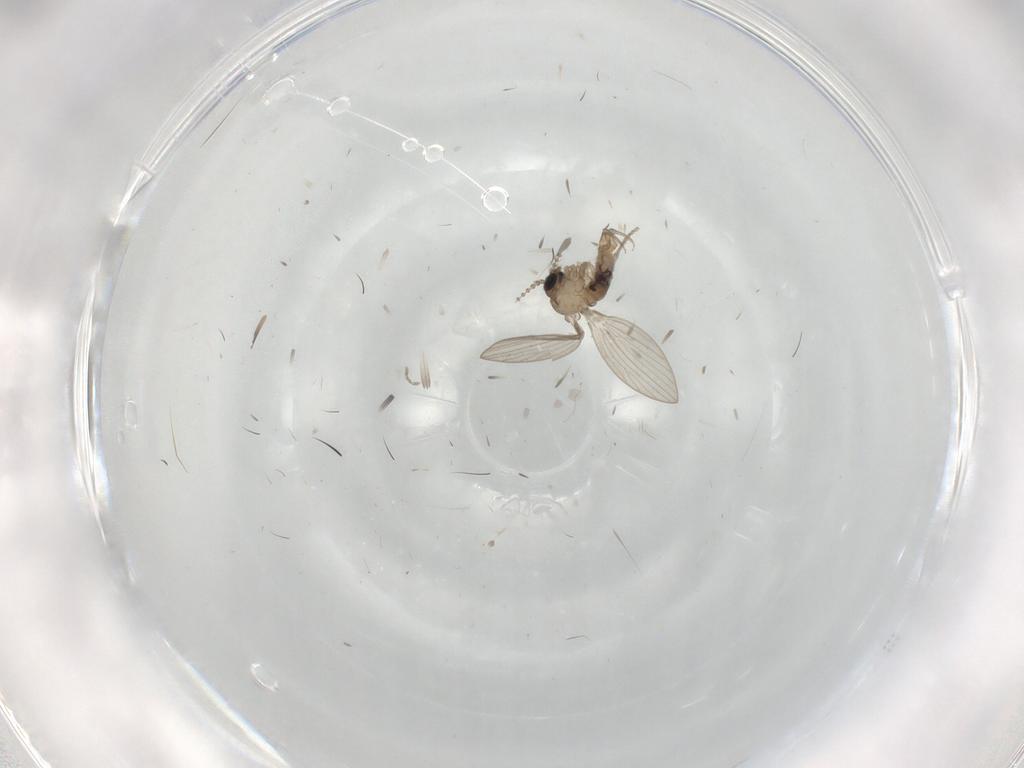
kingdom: Animalia
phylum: Arthropoda
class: Insecta
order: Diptera
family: Psychodidae
